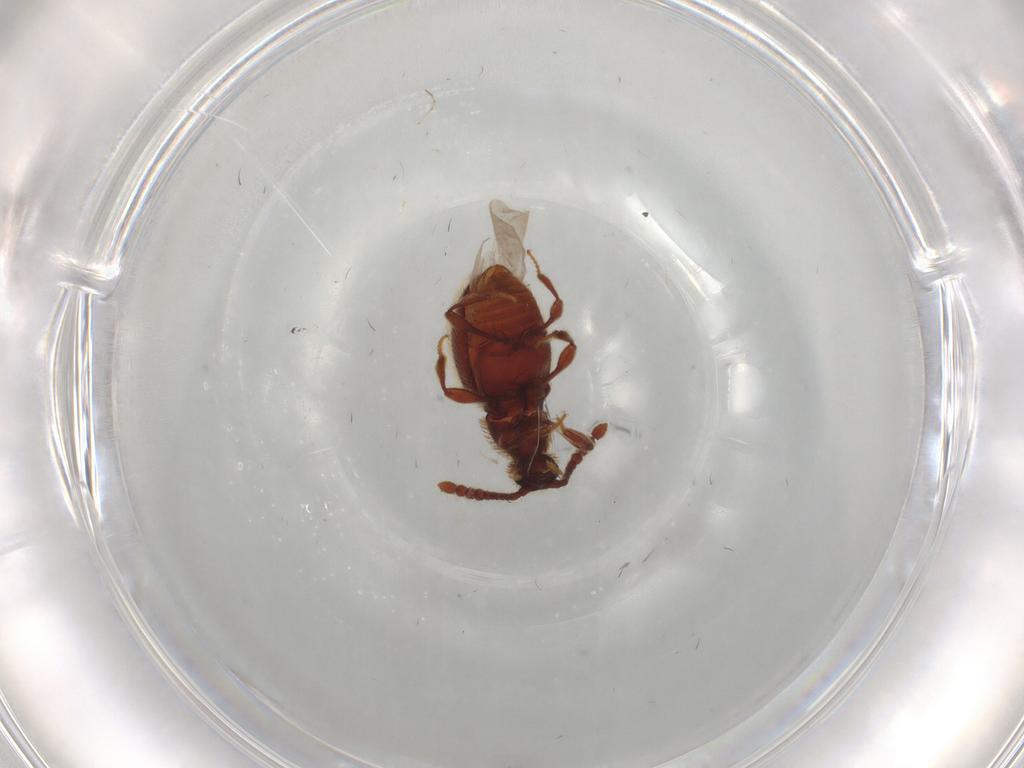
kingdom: Animalia
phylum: Arthropoda
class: Insecta
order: Coleoptera
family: Staphylinidae
